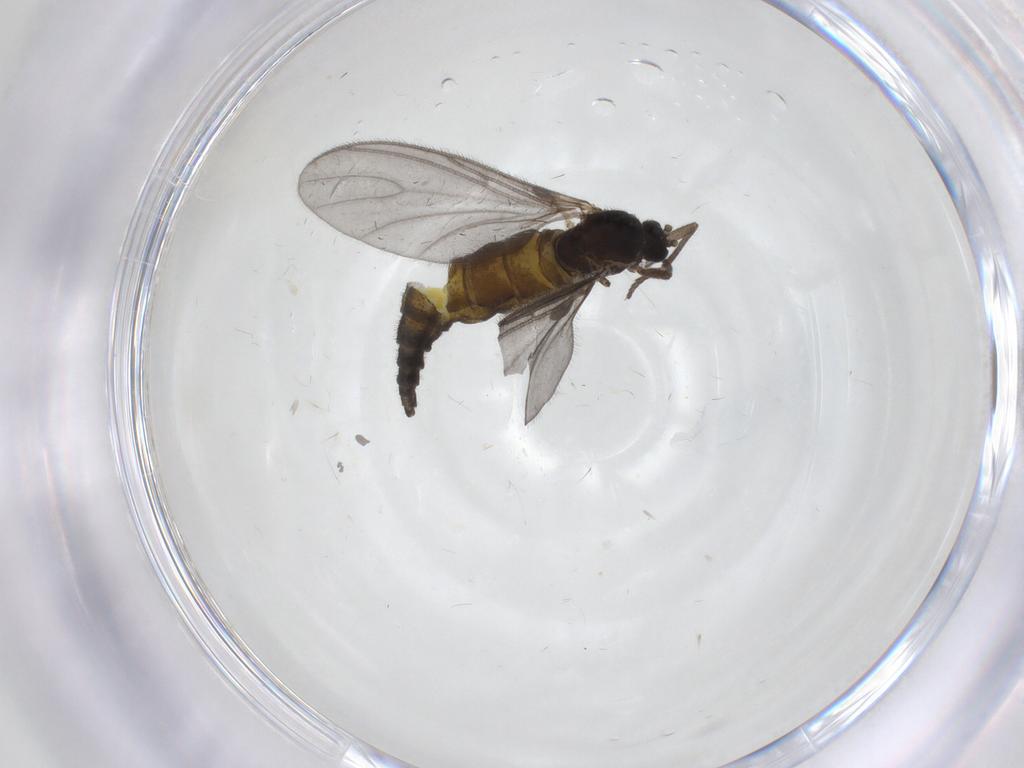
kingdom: Animalia
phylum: Arthropoda
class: Insecta
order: Diptera
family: Sciaridae
